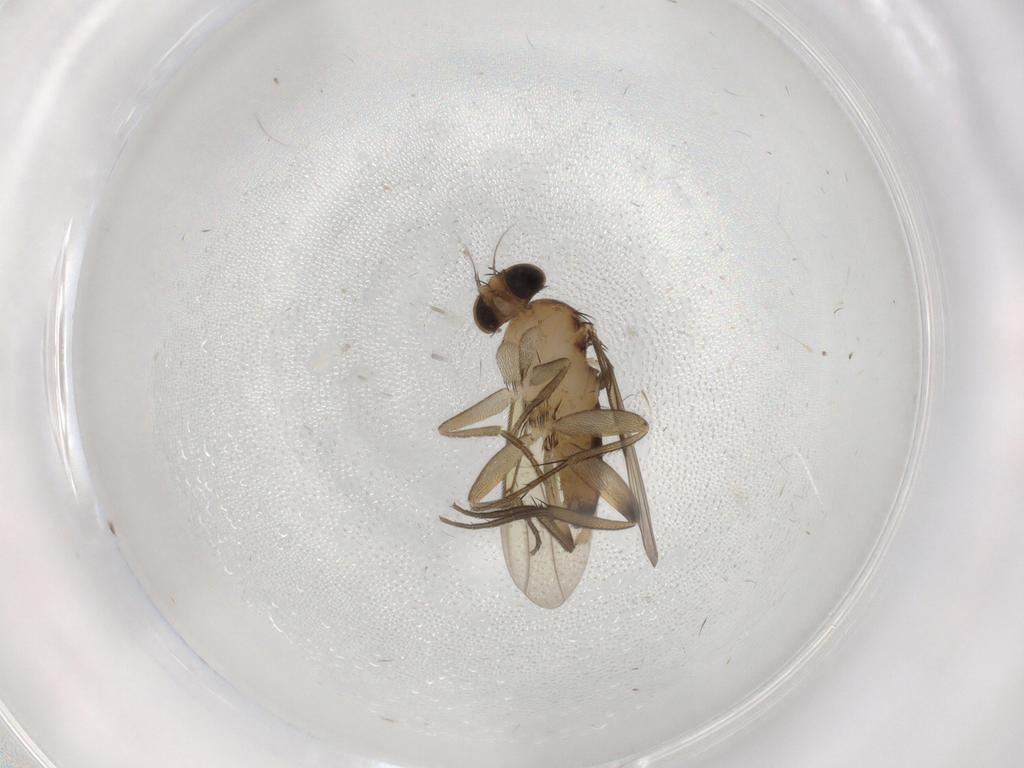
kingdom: Animalia
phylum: Arthropoda
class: Insecta
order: Diptera
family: Phoridae
